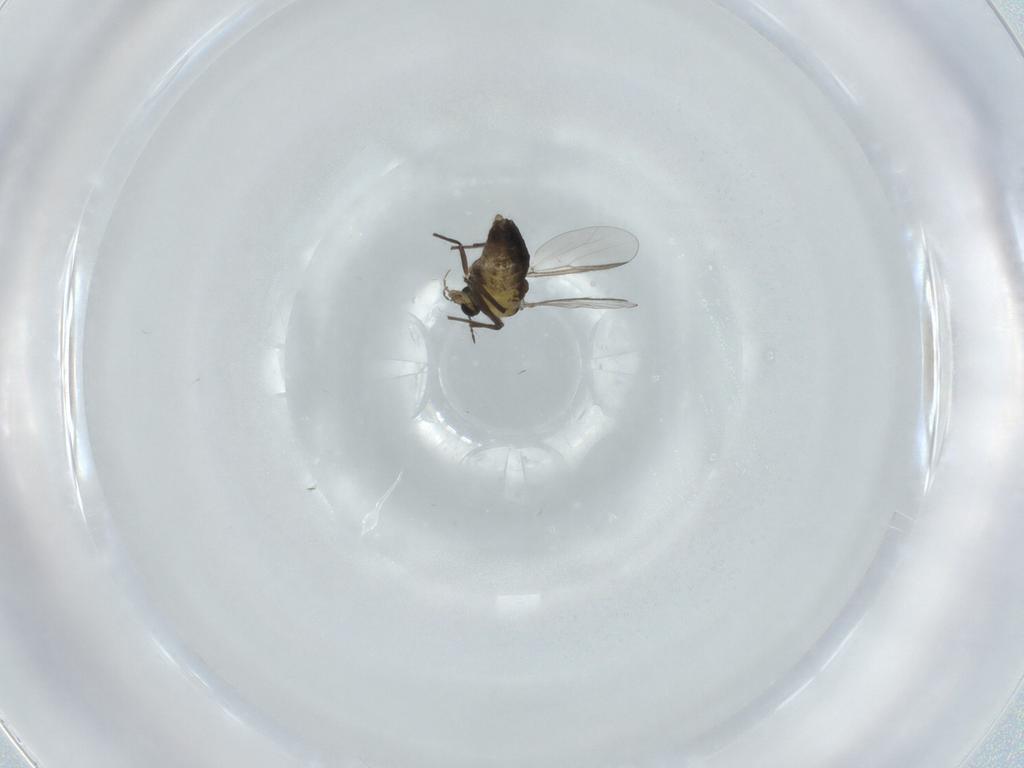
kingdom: Animalia
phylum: Arthropoda
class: Insecta
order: Diptera
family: Chironomidae
